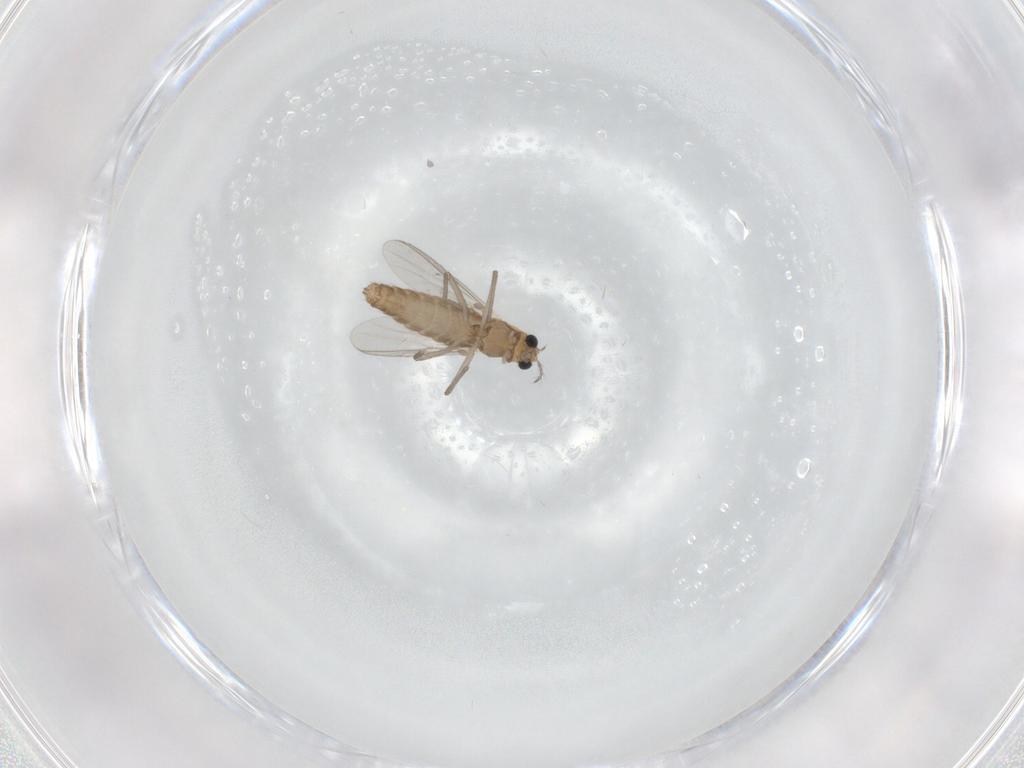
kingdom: Animalia
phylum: Arthropoda
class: Insecta
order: Diptera
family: Chironomidae
